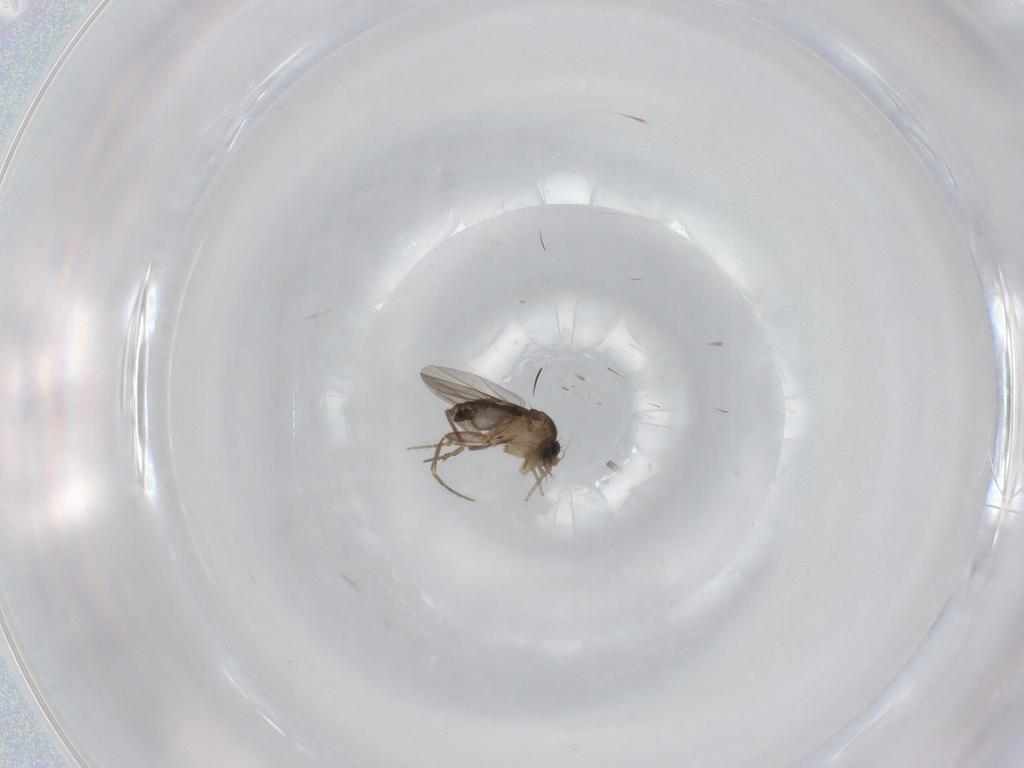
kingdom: Animalia
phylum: Arthropoda
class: Insecta
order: Diptera
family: Phoridae
